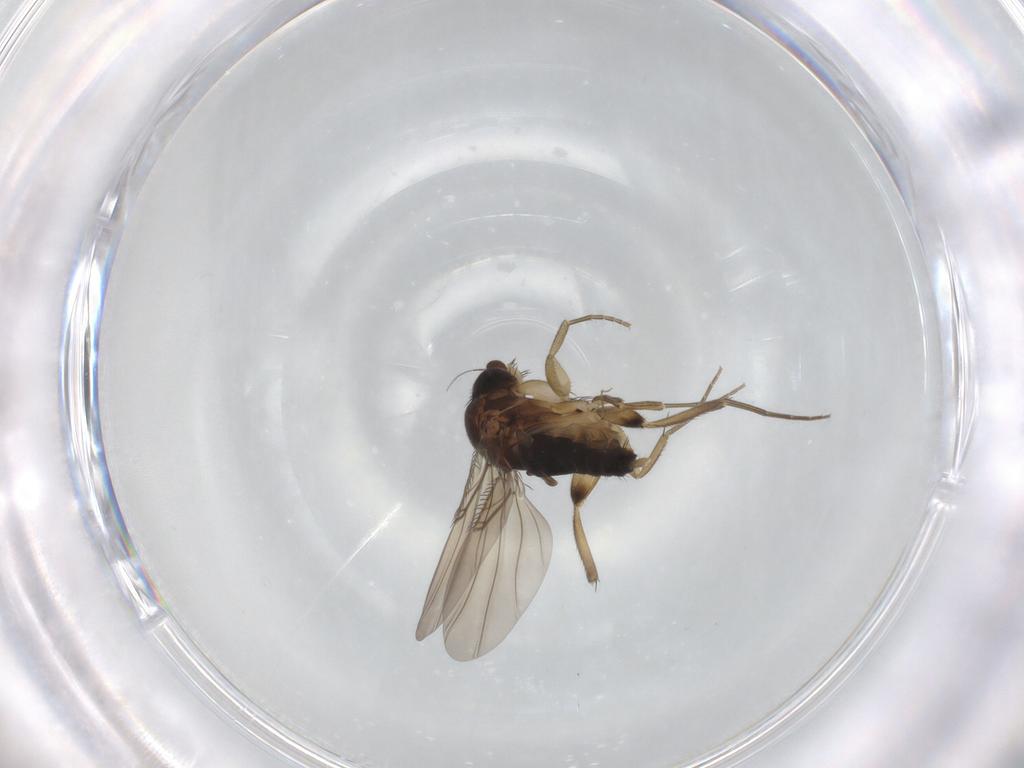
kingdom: Animalia
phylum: Arthropoda
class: Insecta
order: Diptera
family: Phoridae
